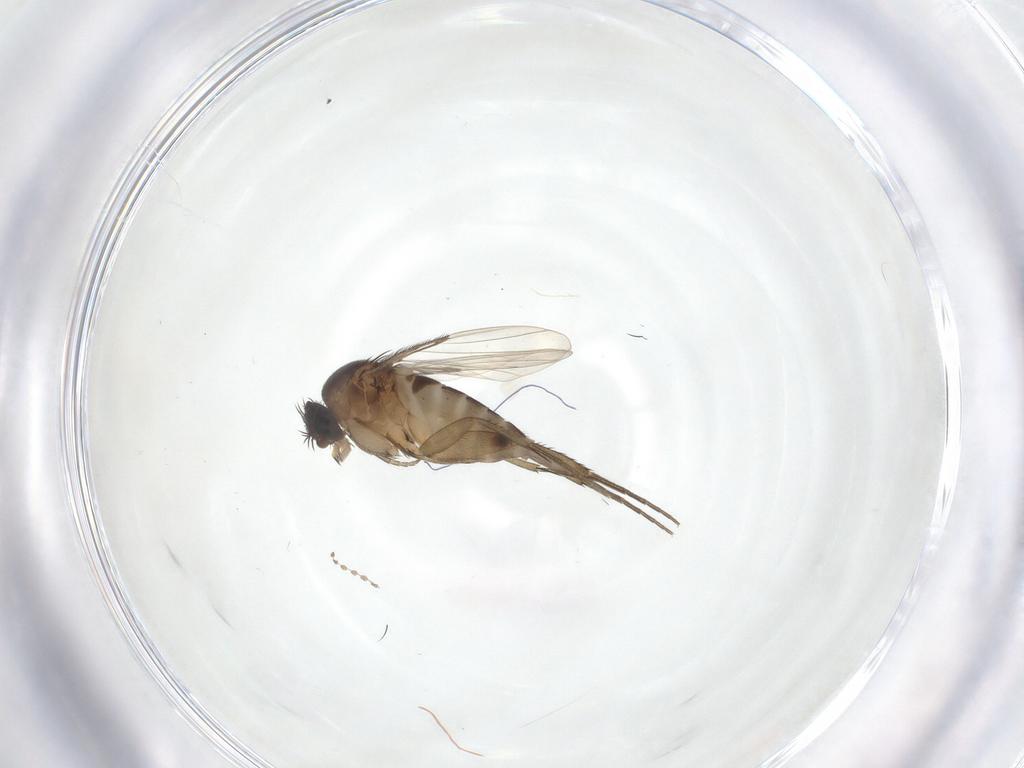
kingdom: Animalia
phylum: Arthropoda
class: Insecta
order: Diptera
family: Phoridae
